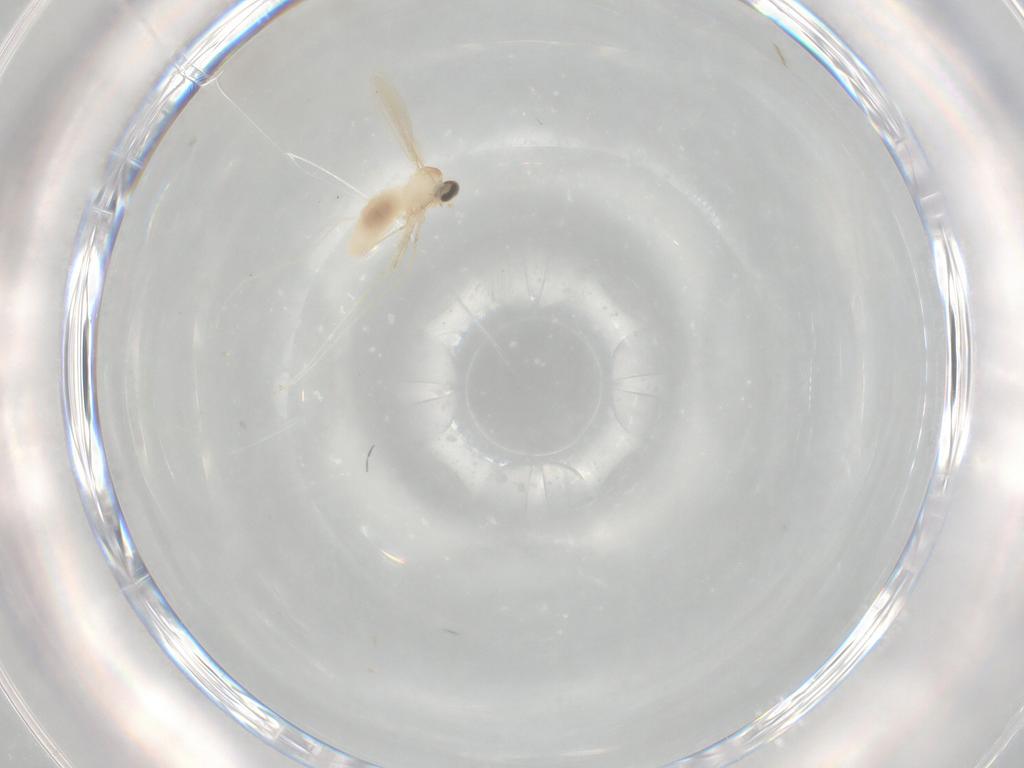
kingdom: Animalia
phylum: Arthropoda
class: Insecta
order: Diptera
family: Cecidomyiidae
